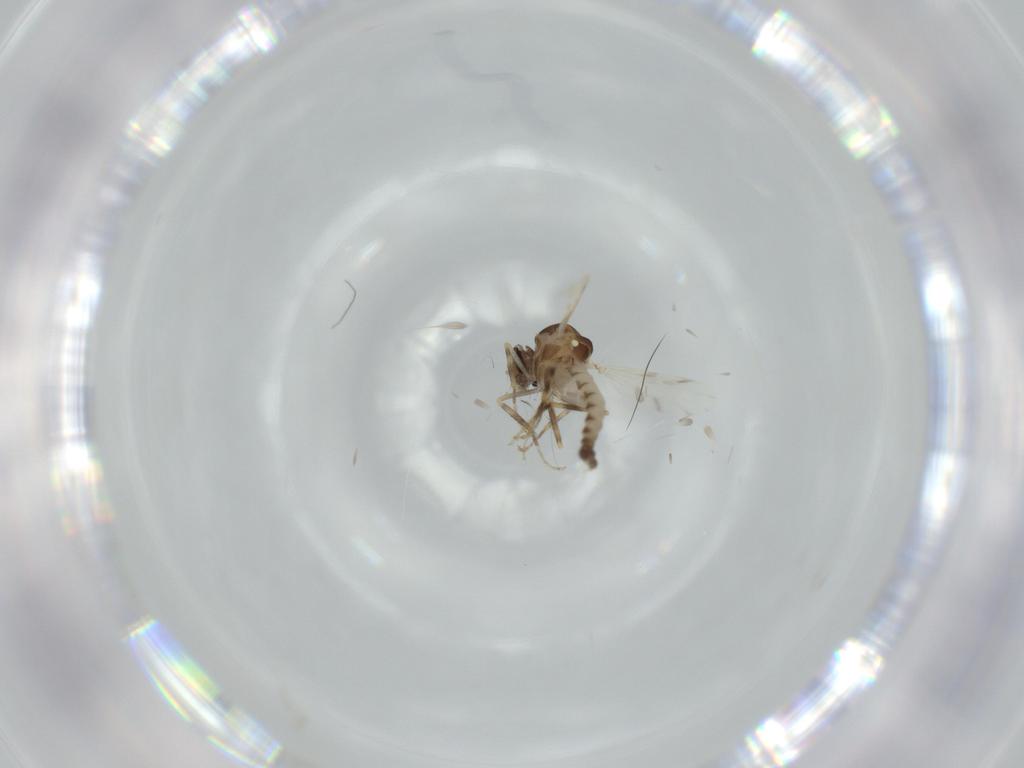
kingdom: Animalia
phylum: Arthropoda
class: Insecta
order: Diptera
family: Ceratopogonidae
